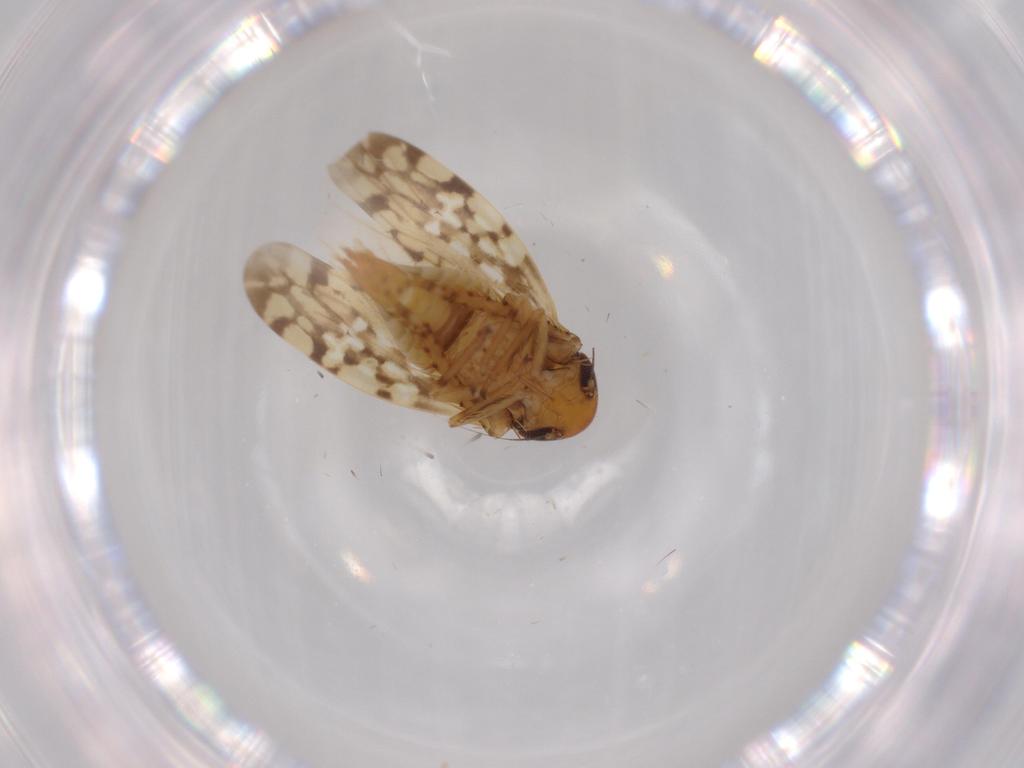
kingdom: Animalia
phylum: Arthropoda
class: Insecta
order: Hemiptera
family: Cicadellidae
